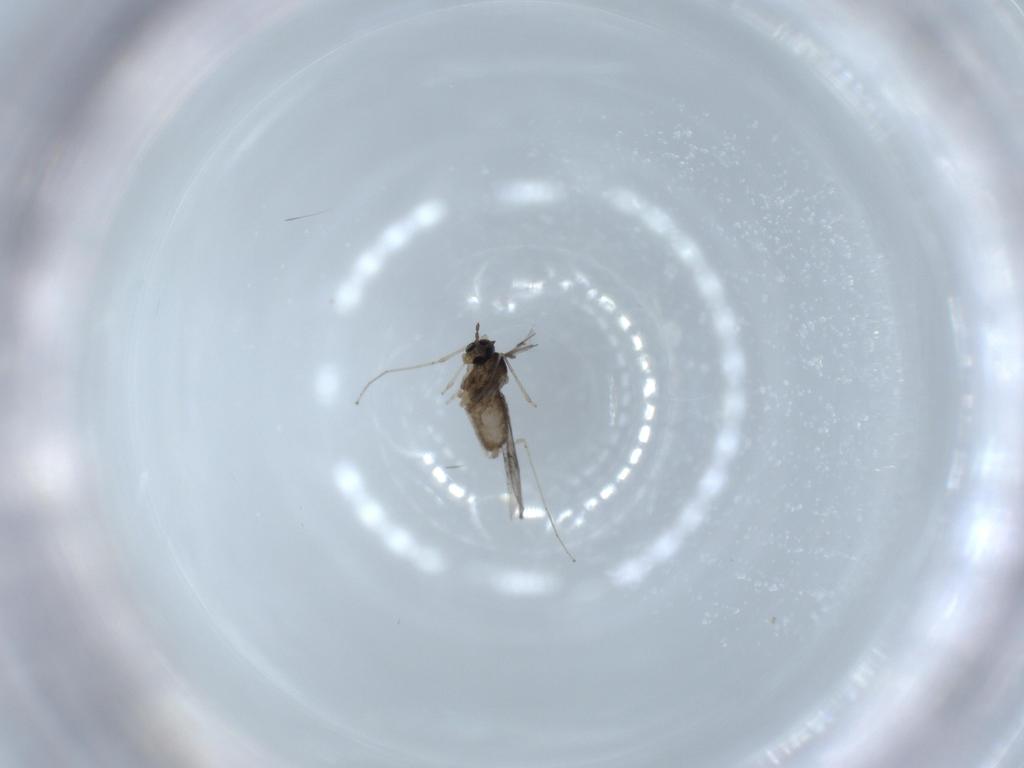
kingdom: Animalia
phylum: Arthropoda
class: Insecta
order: Diptera
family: Cecidomyiidae
